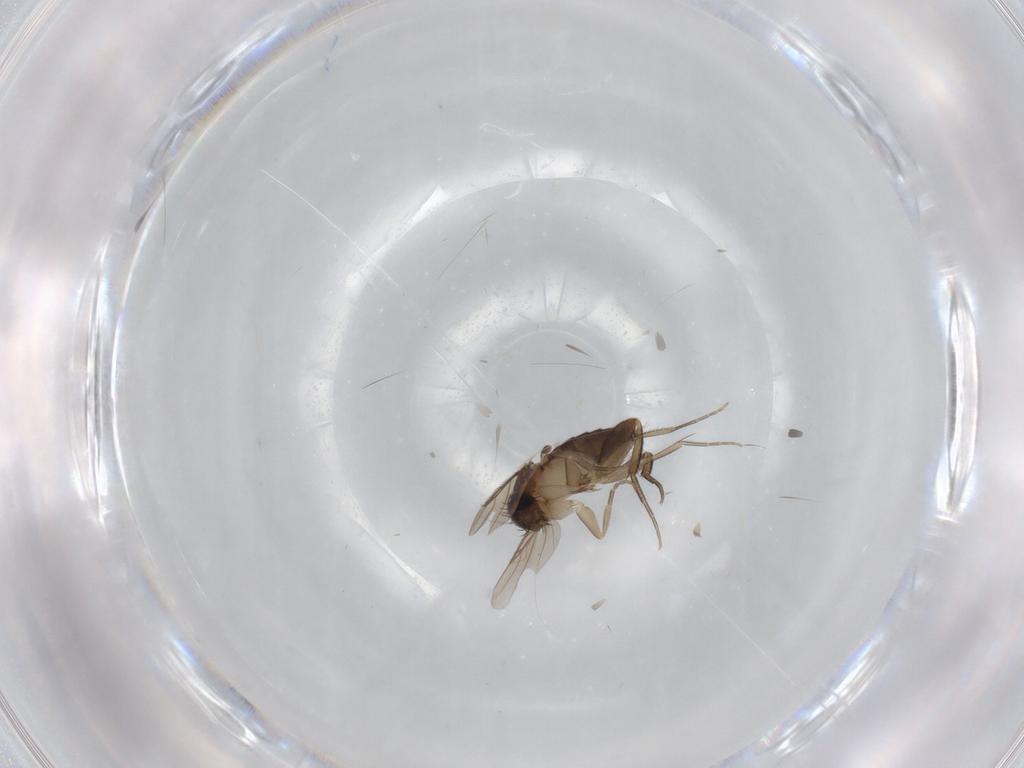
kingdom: Animalia
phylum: Arthropoda
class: Insecta
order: Diptera
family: Phoridae
